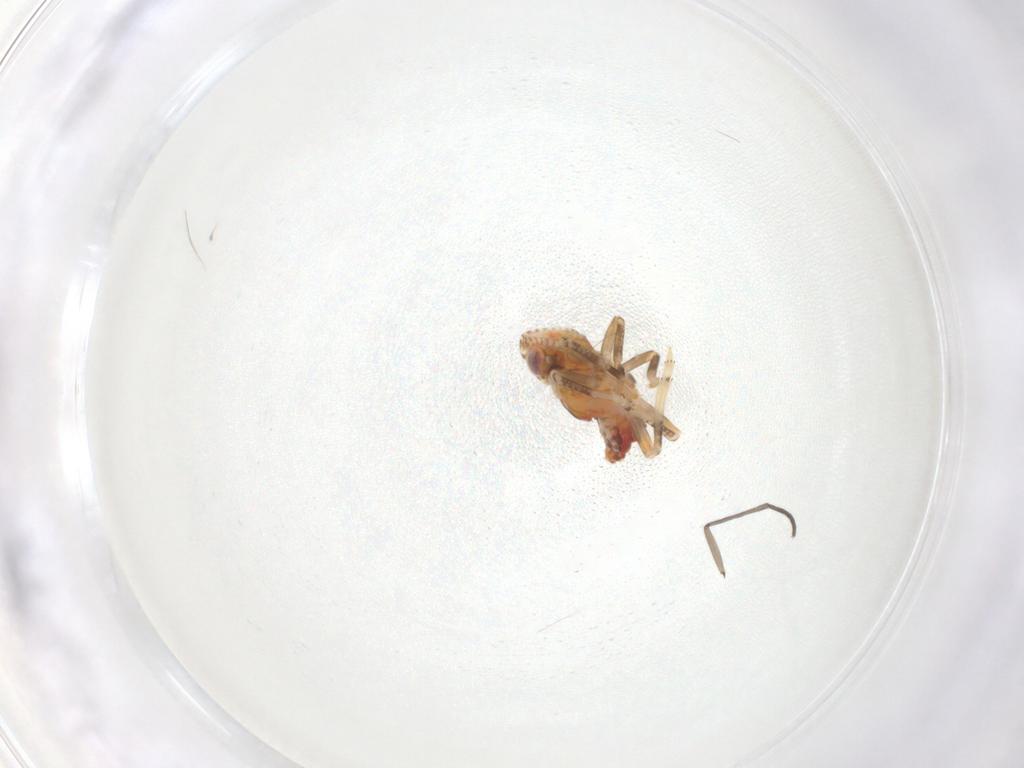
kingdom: Animalia
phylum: Arthropoda
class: Insecta
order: Hemiptera
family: Tropiduchidae
